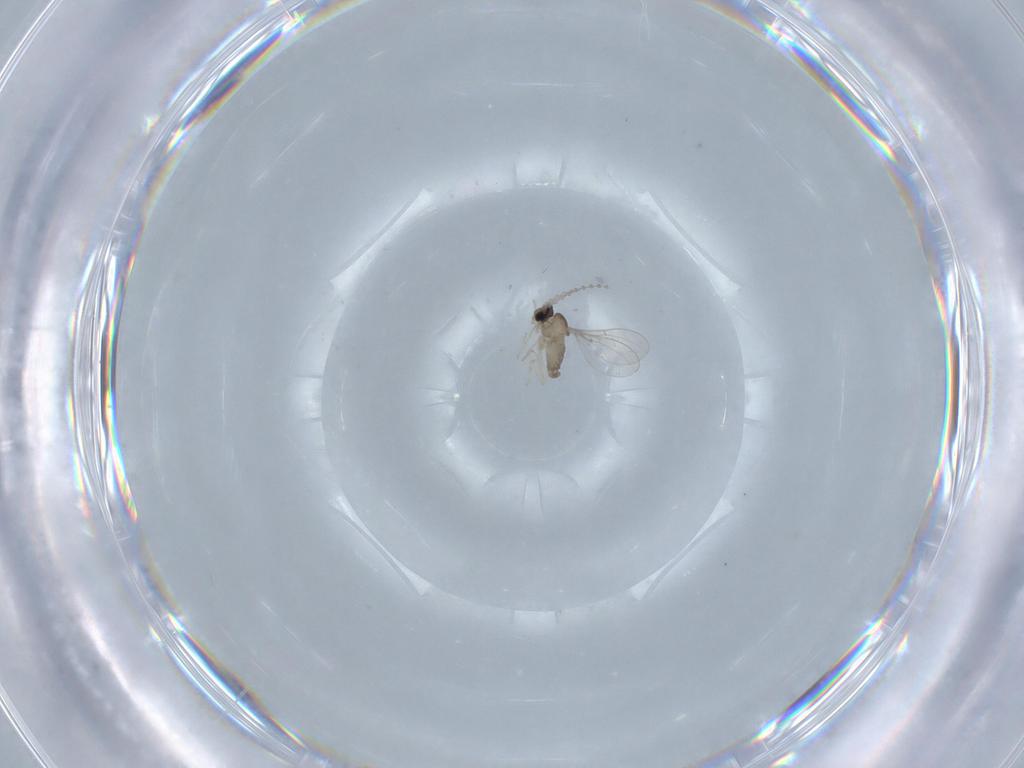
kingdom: Animalia
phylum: Arthropoda
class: Insecta
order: Diptera
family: Cecidomyiidae
